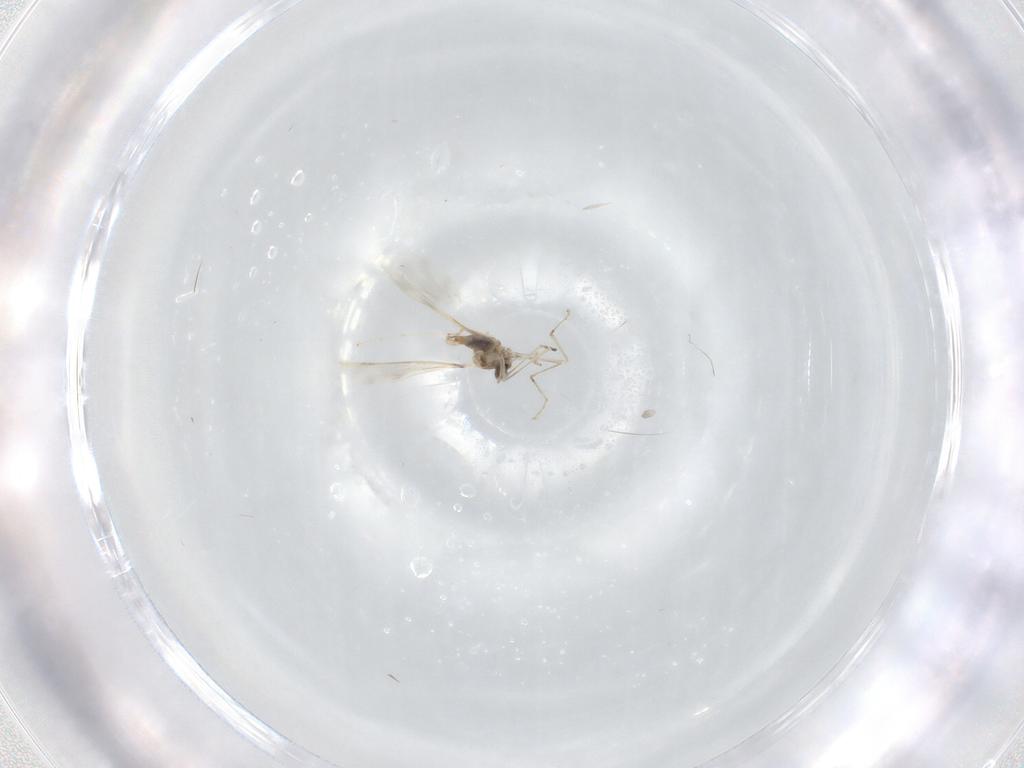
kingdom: Animalia
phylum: Arthropoda
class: Insecta
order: Diptera
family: Cecidomyiidae
